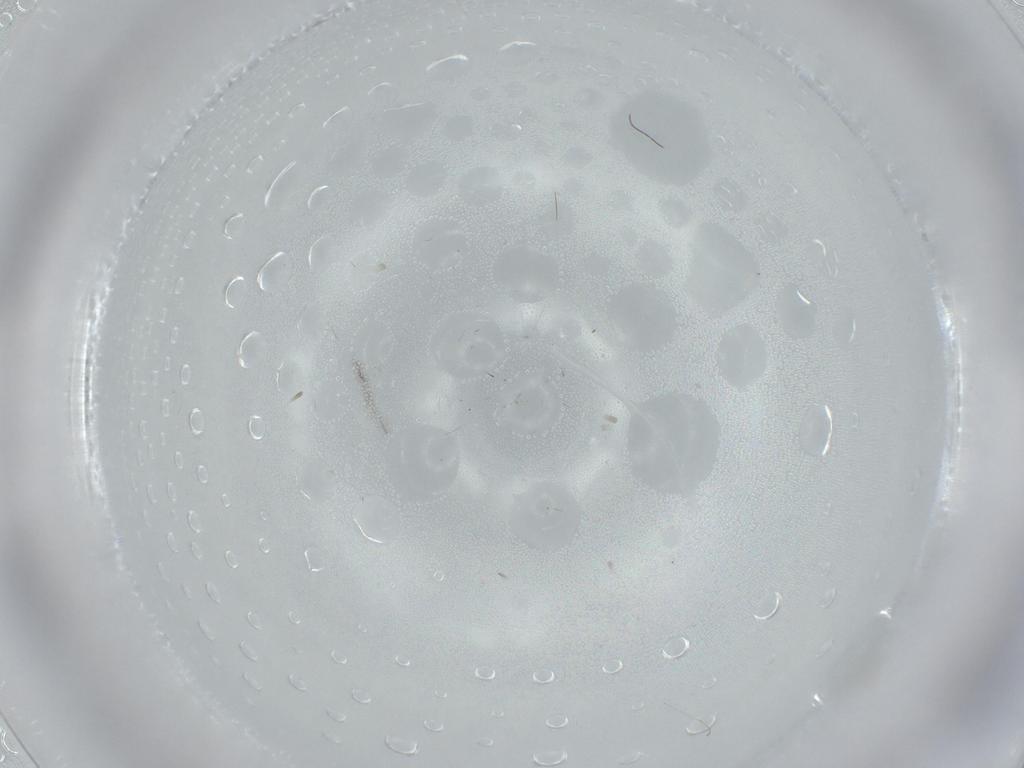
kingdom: Animalia
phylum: Arthropoda
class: Insecta
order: Diptera
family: Cecidomyiidae
